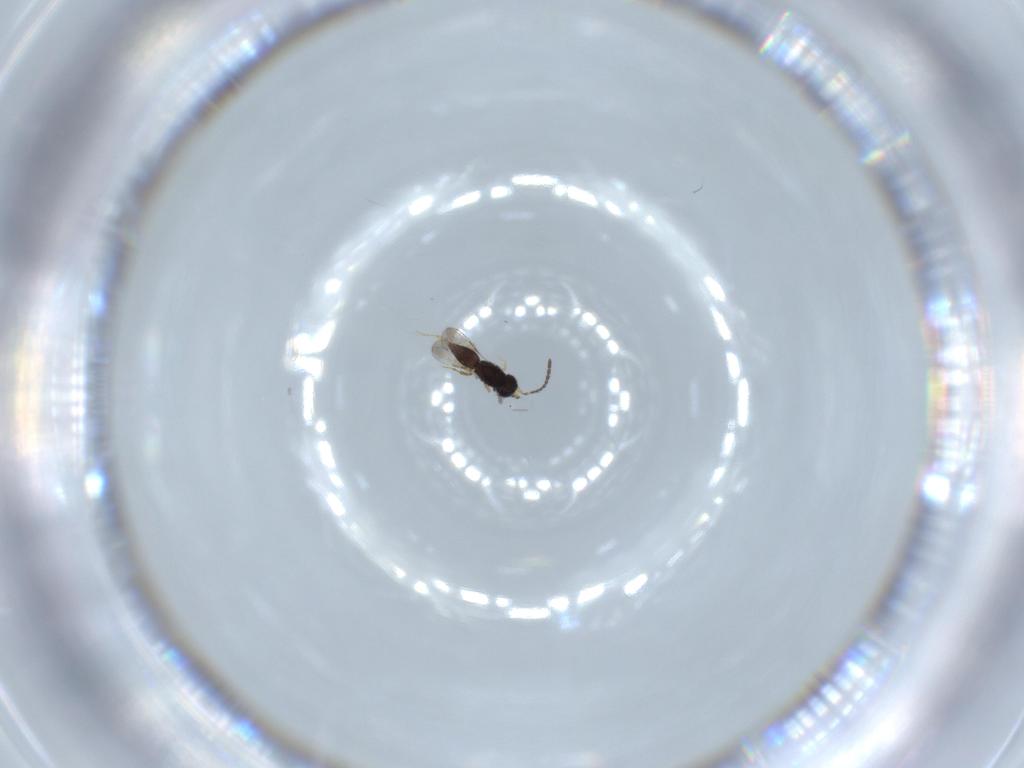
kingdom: Animalia
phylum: Arthropoda
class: Insecta
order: Hymenoptera
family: Ceraphronidae
